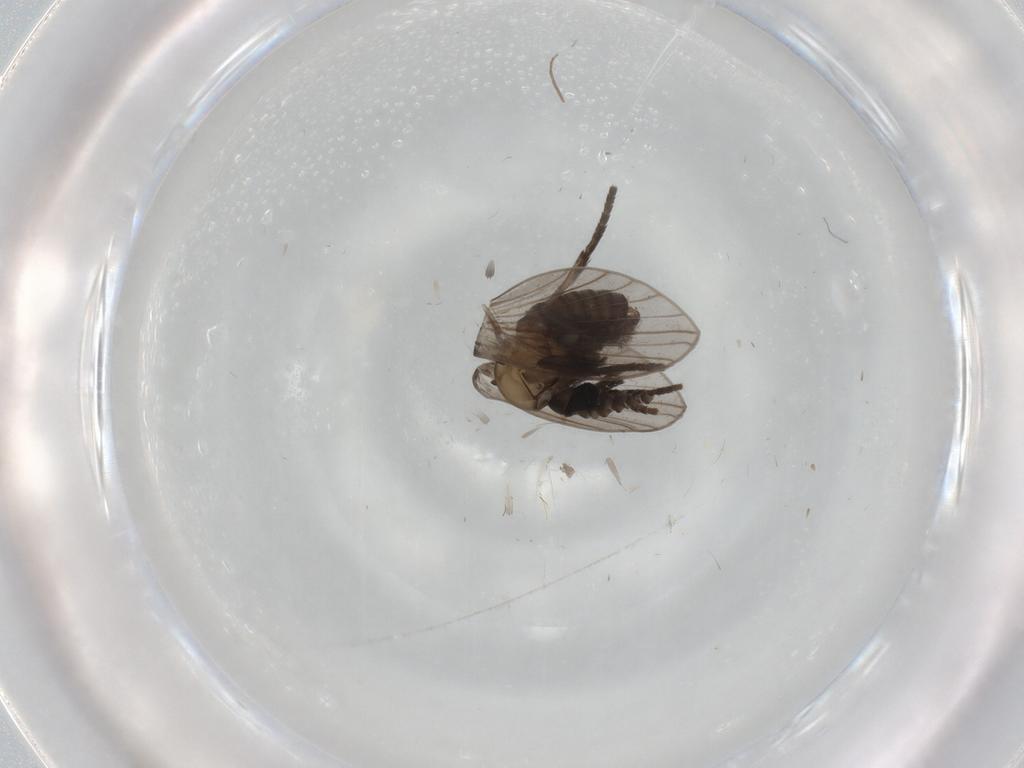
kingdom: Animalia
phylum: Arthropoda
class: Insecta
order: Diptera
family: Psychodidae
